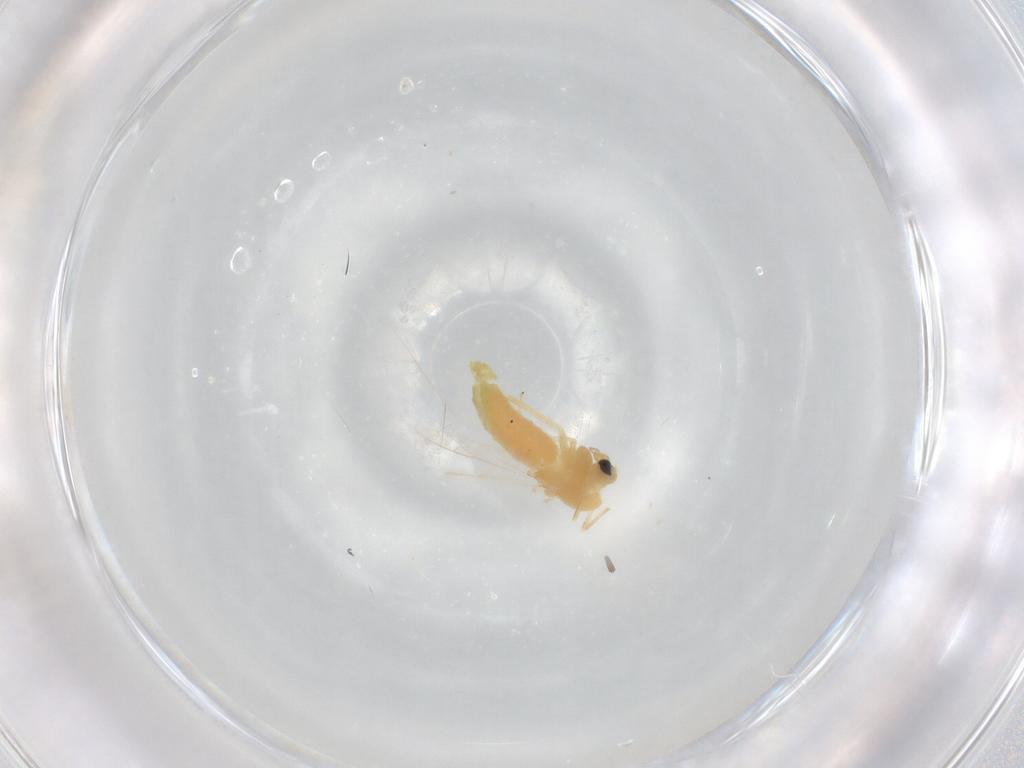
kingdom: Animalia
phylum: Arthropoda
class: Insecta
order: Diptera
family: Chironomidae
